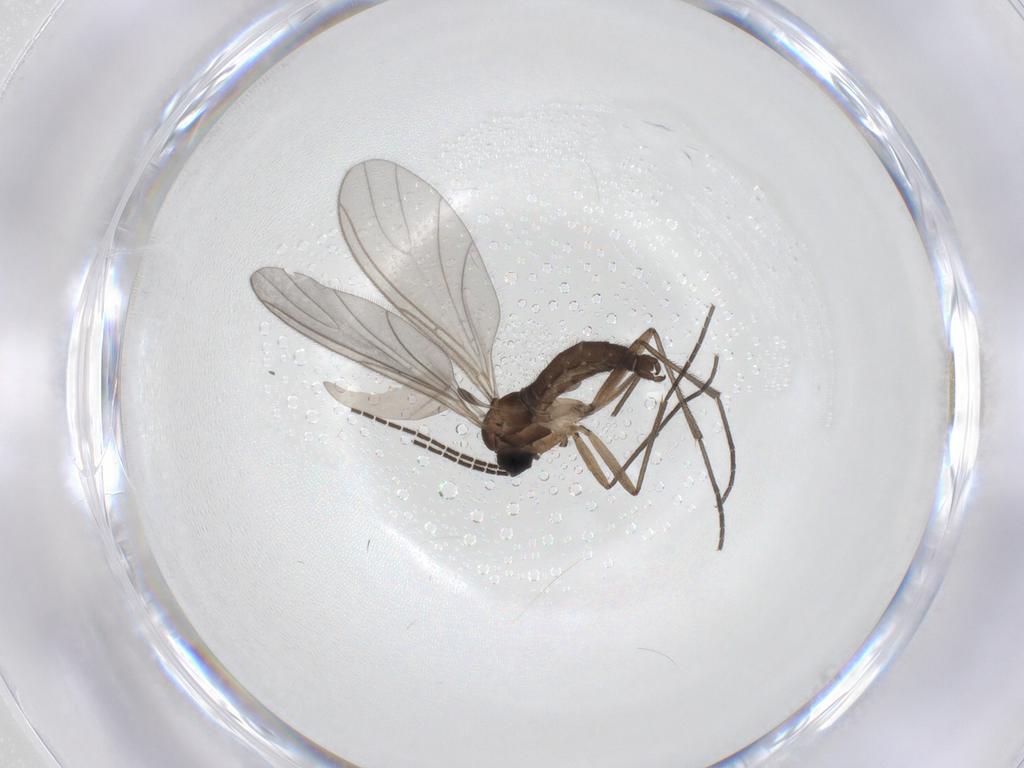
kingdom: Animalia
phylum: Arthropoda
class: Insecta
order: Diptera
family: Sciaridae
